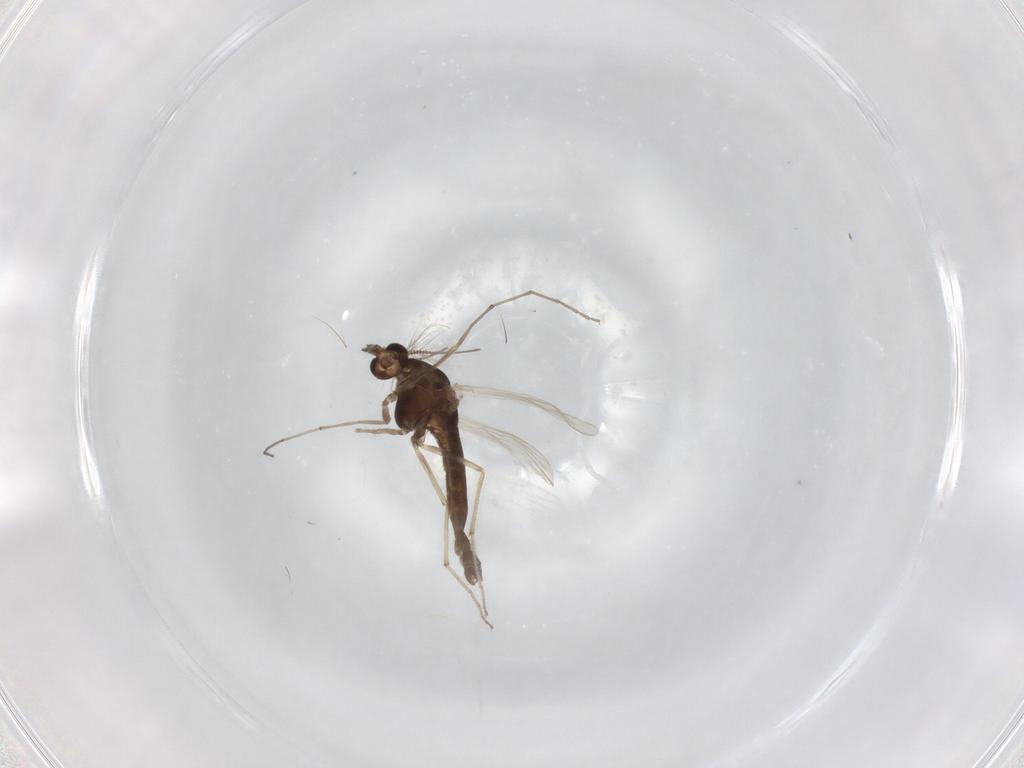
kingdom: Animalia
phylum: Arthropoda
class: Insecta
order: Diptera
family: Chironomidae
